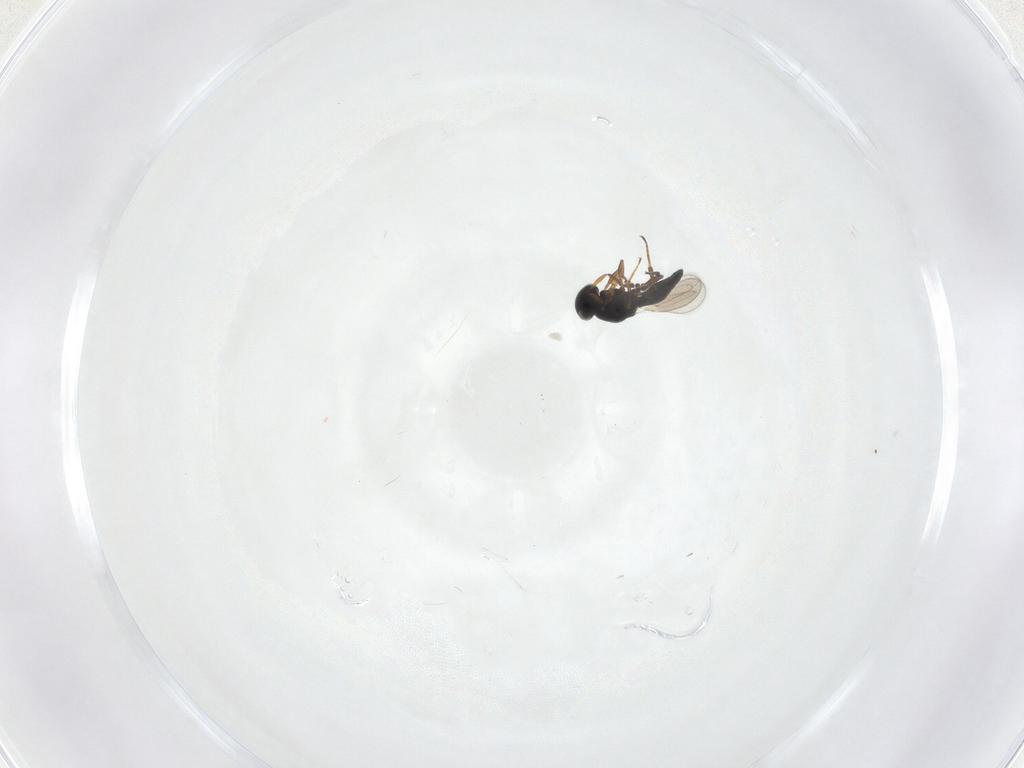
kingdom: Animalia
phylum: Arthropoda
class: Insecta
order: Hymenoptera
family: Platygastridae
